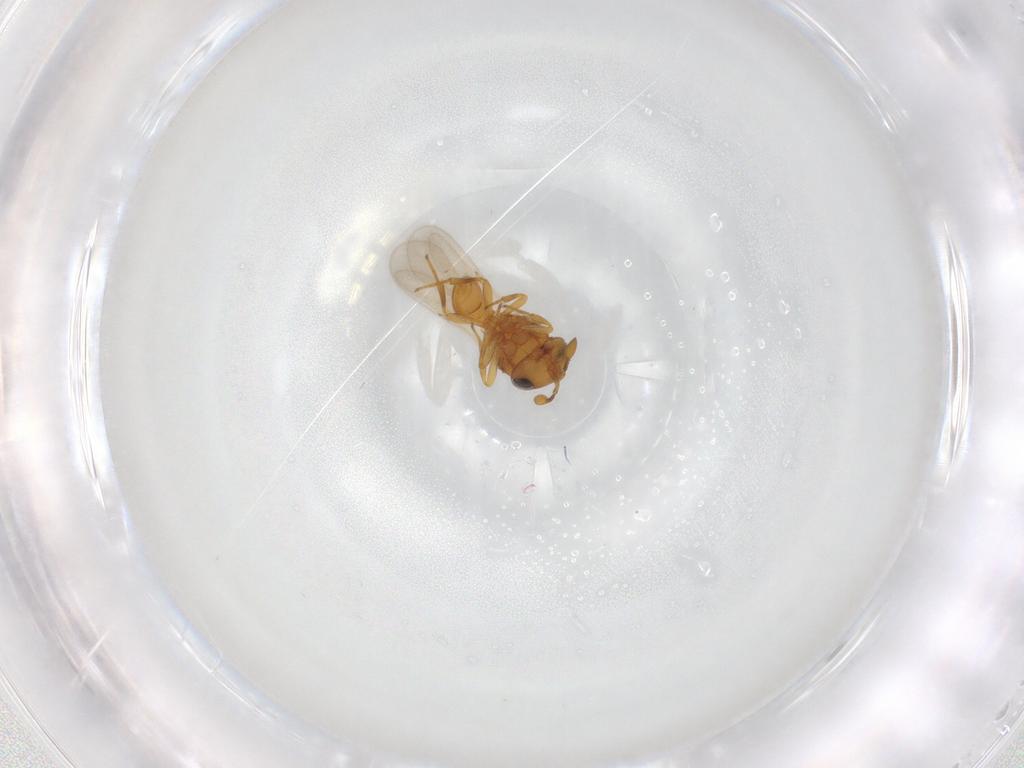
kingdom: Animalia
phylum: Arthropoda
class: Insecta
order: Hymenoptera
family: Scelionidae
